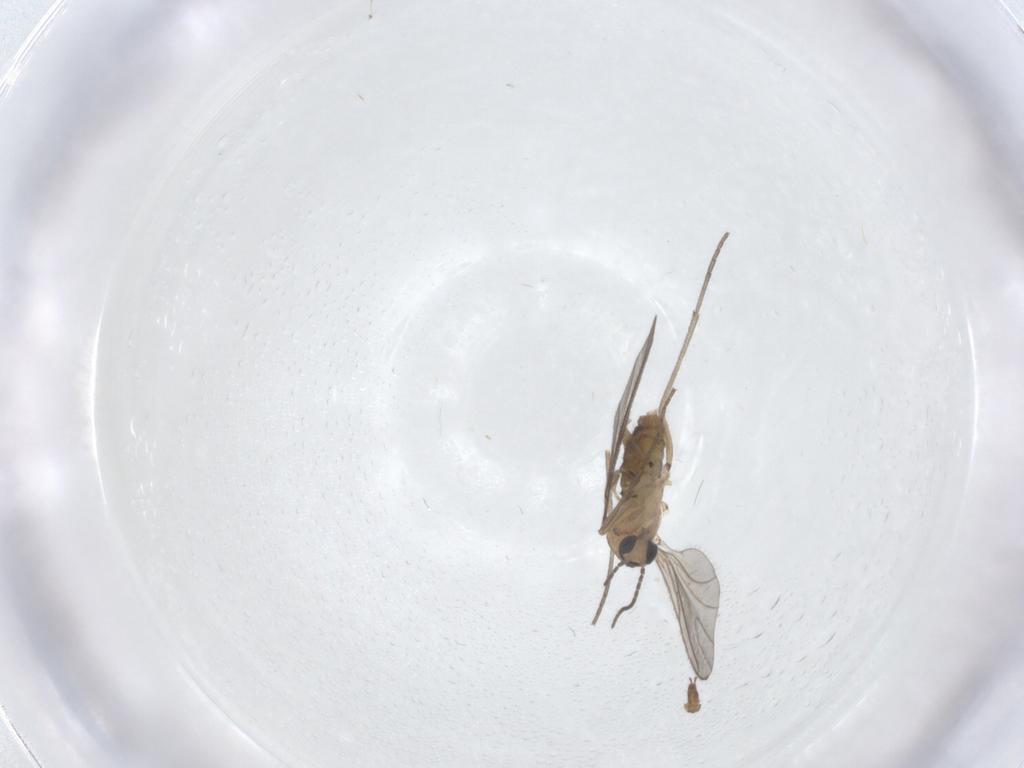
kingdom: Animalia
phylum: Arthropoda
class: Insecta
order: Diptera
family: Sciaridae
